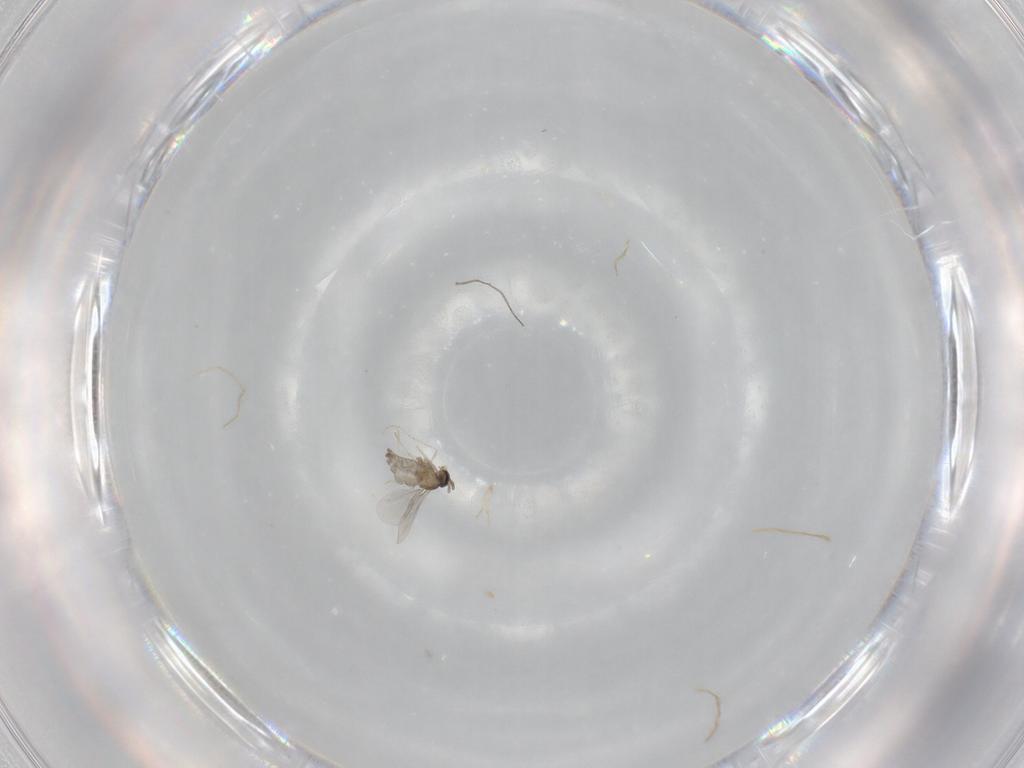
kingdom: Animalia
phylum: Arthropoda
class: Insecta
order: Diptera
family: Cecidomyiidae
